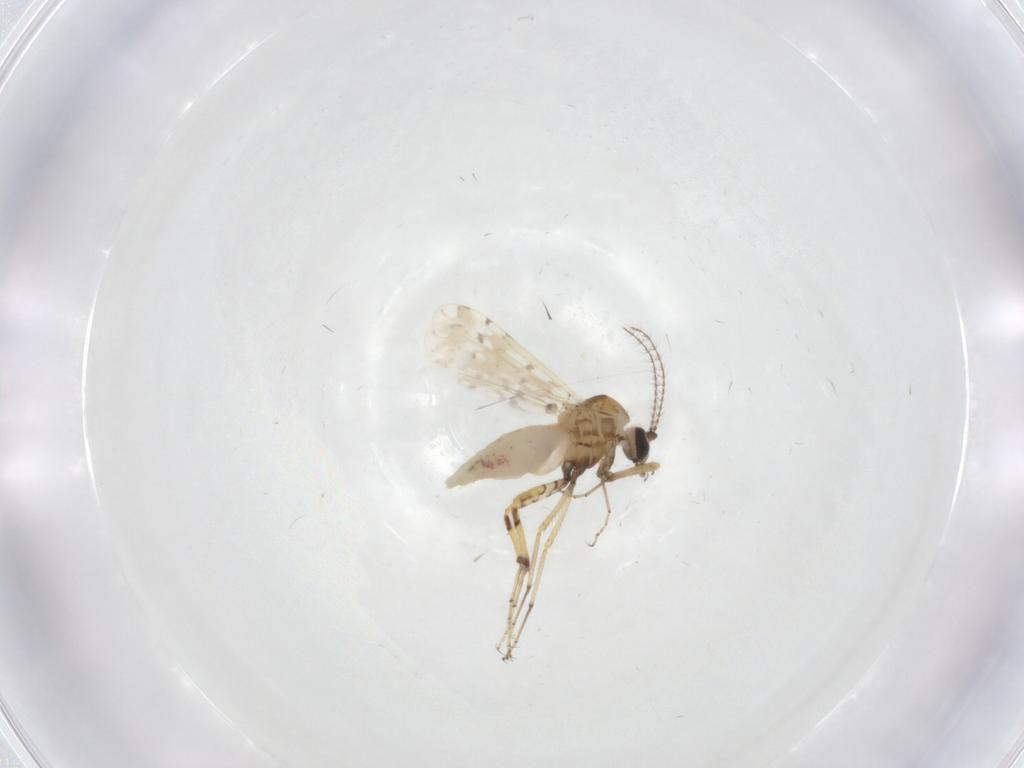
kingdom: Animalia
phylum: Arthropoda
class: Insecta
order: Diptera
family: Ceratopogonidae
